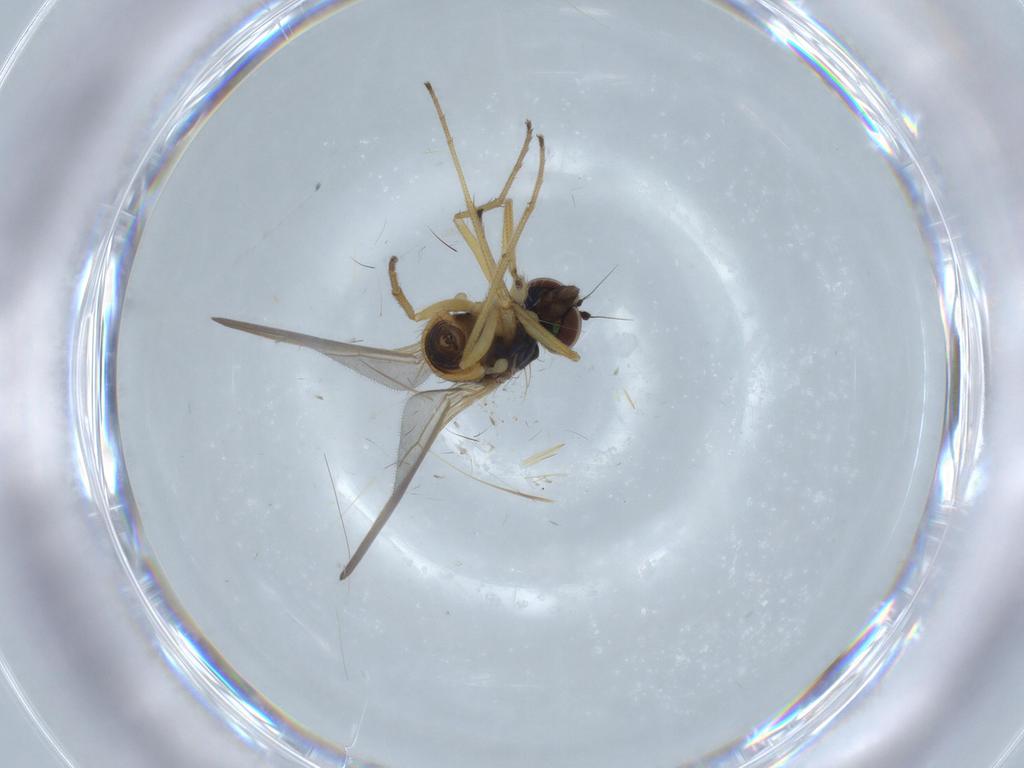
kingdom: Animalia
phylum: Arthropoda
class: Insecta
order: Diptera
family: Dolichopodidae
